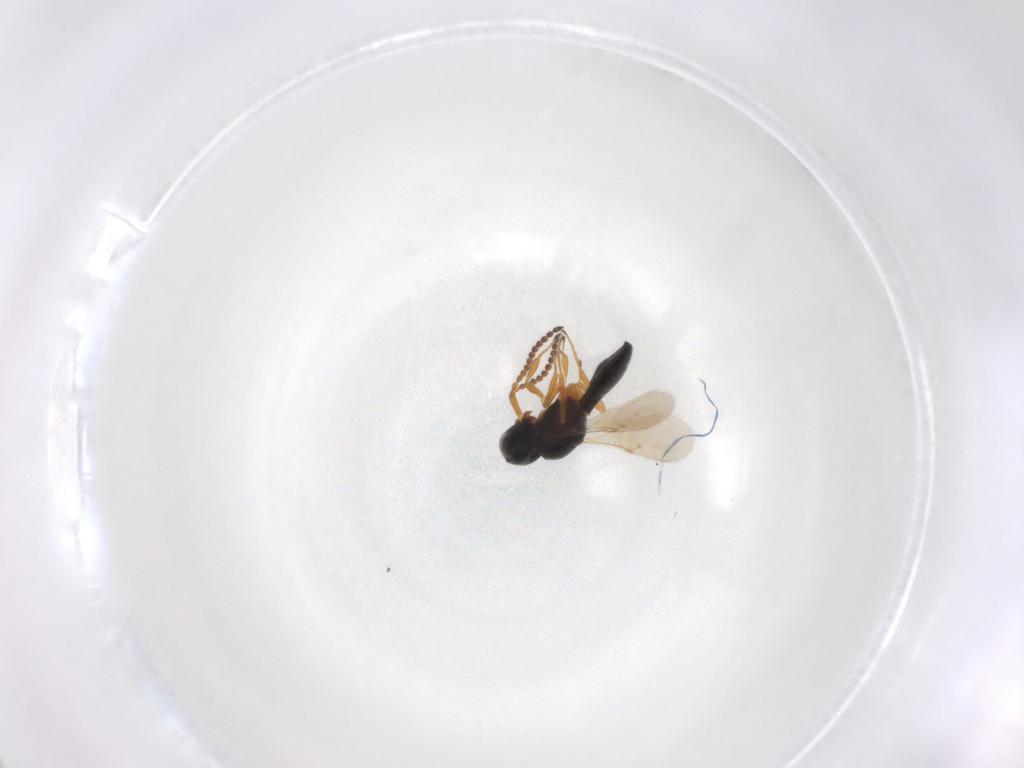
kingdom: Animalia
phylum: Arthropoda
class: Insecta
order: Hymenoptera
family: Scelionidae
